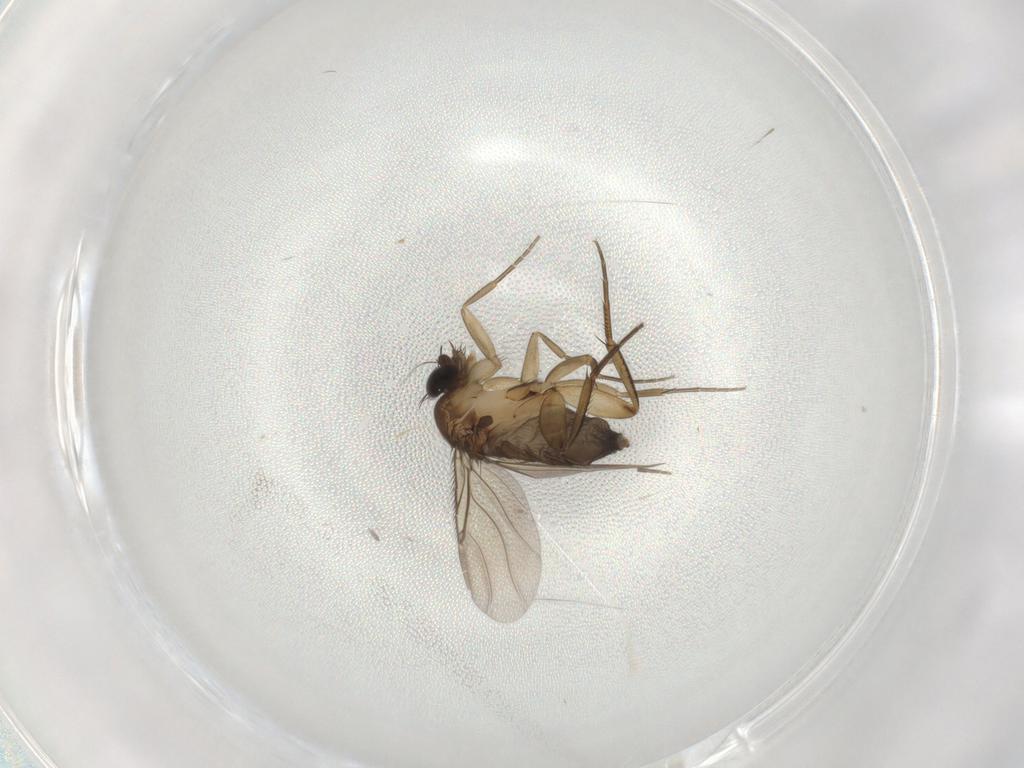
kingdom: Animalia
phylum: Arthropoda
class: Insecta
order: Diptera
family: Phoridae
